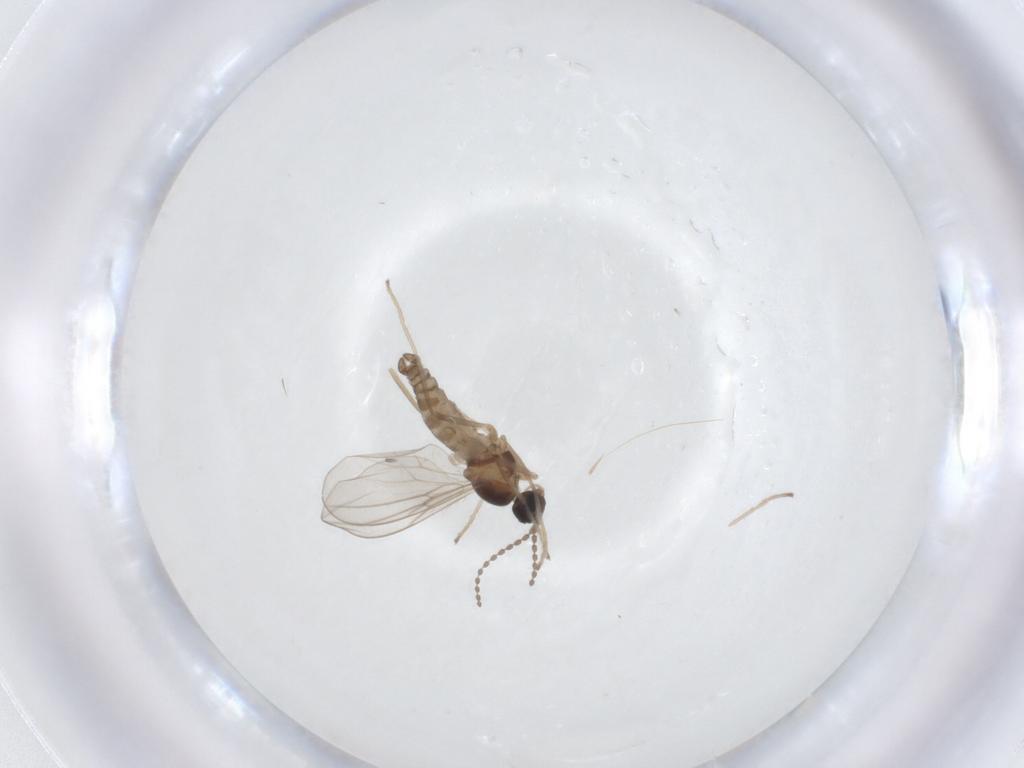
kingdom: Animalia
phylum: Arthropoda
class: Insecta
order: Diptera
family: Cecidomyiidae
